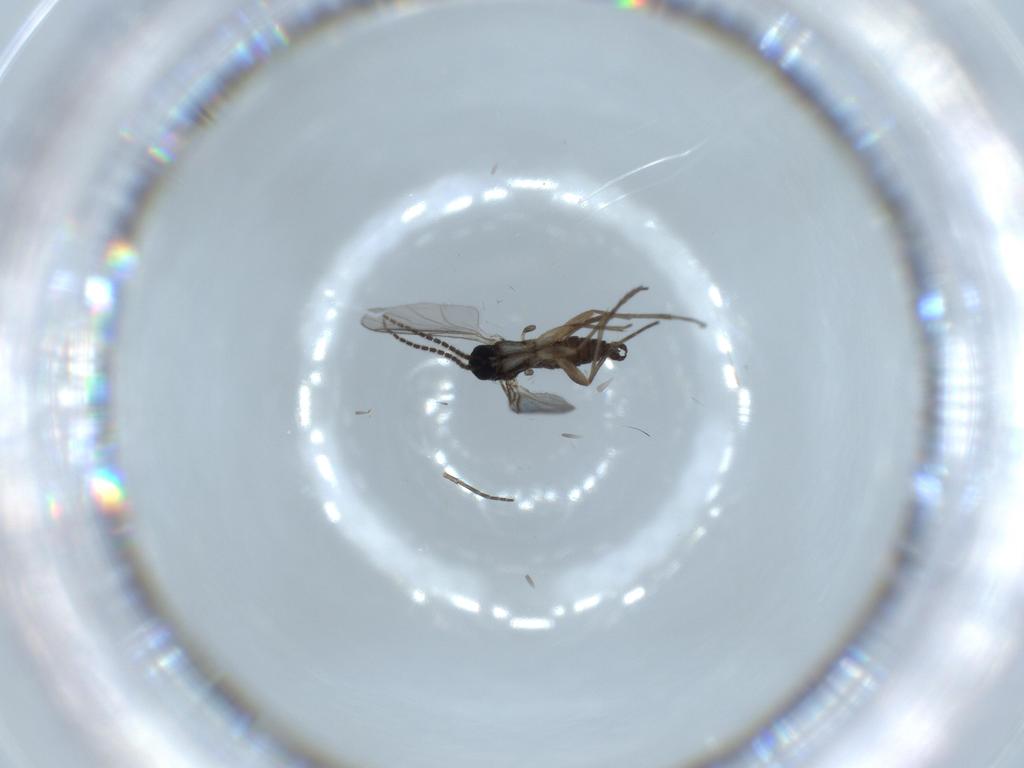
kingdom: Animalia
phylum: Arthropoda
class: Insecta
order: Diptera
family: Sciaridae
